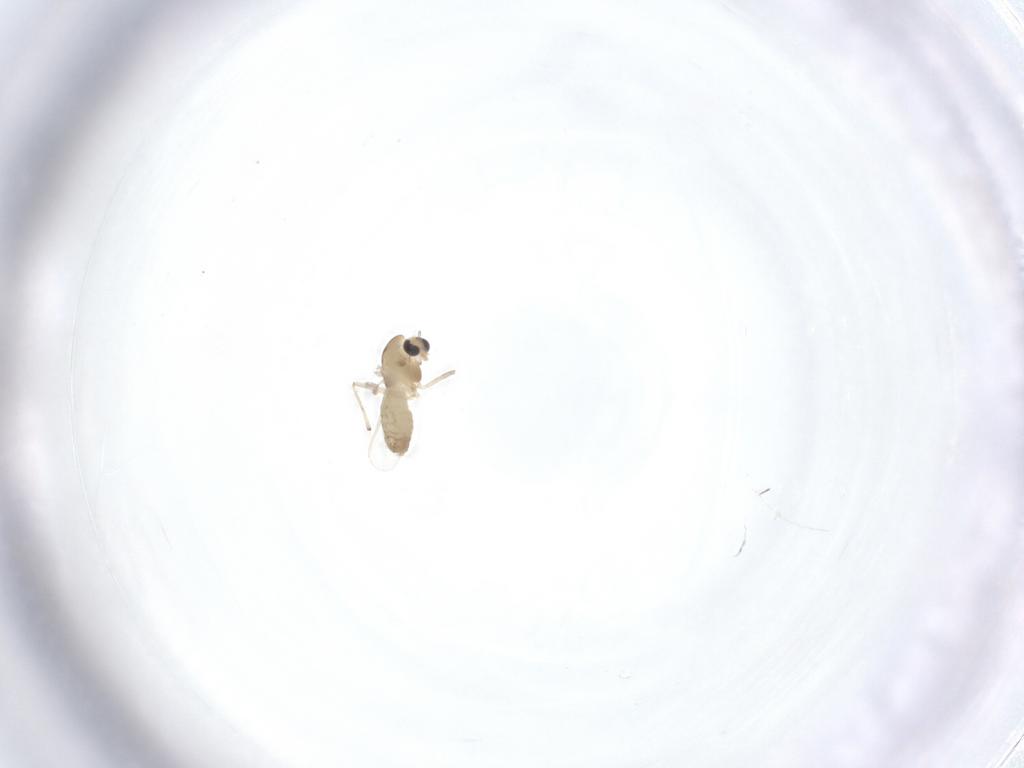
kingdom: Animalia
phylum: Arthropoda
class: Insecta
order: Diptera
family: Chironomidae
